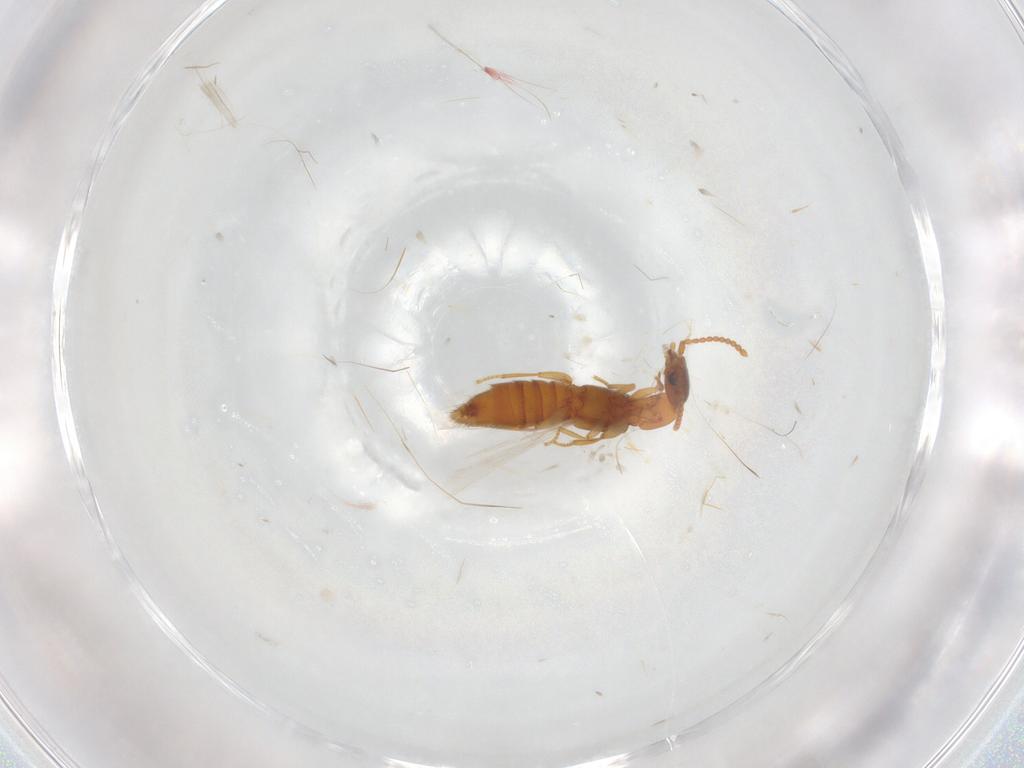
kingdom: Animalia
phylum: Arthropoda
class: Insecta
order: Coleoptera
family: Staphylinidae
